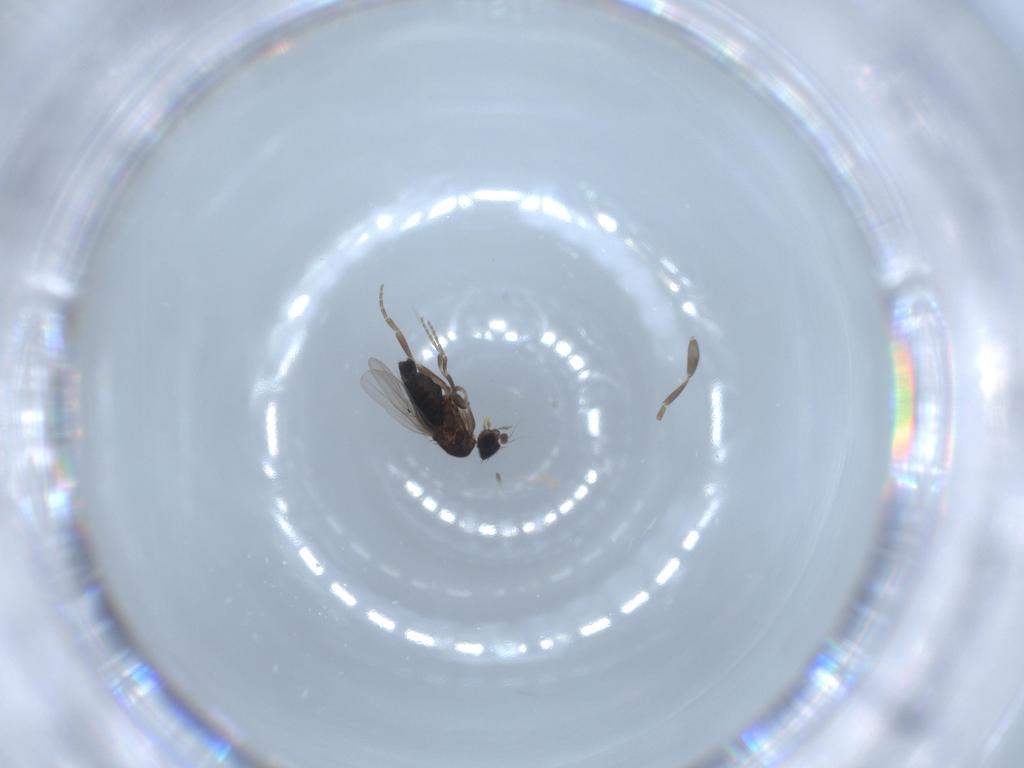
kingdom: Animalia
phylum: Arthropoda
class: Insecta
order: Diptera
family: Phoridae
